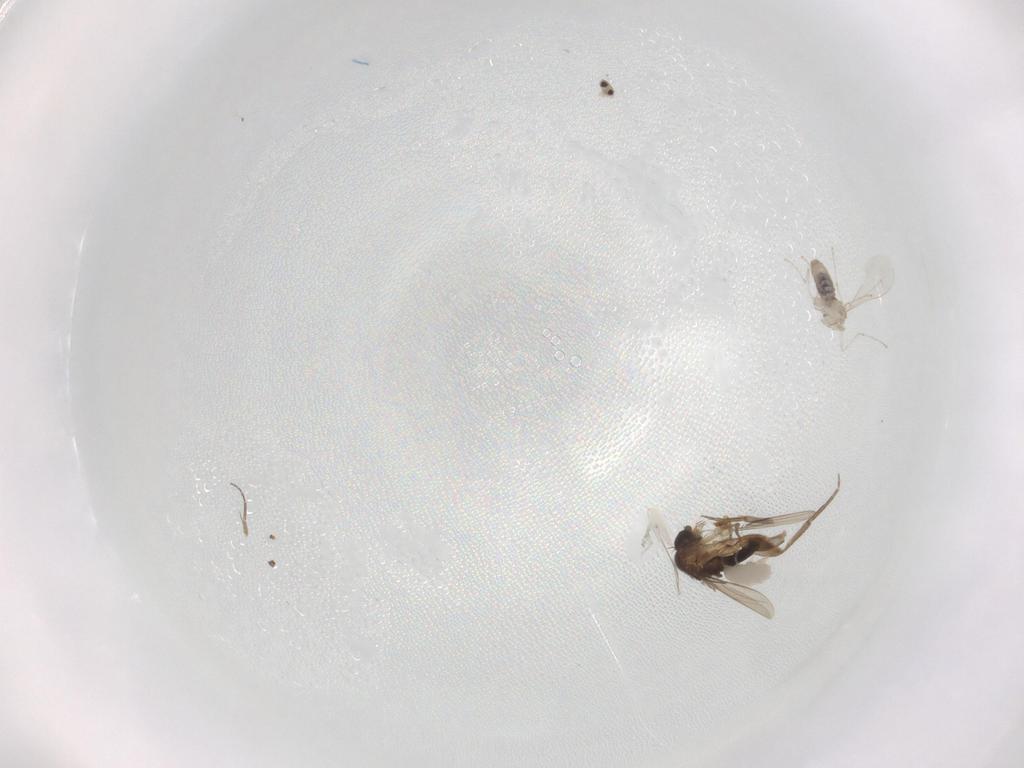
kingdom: Animalia
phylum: Arthropoda
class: Insecta
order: Diptera
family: Phoridae
